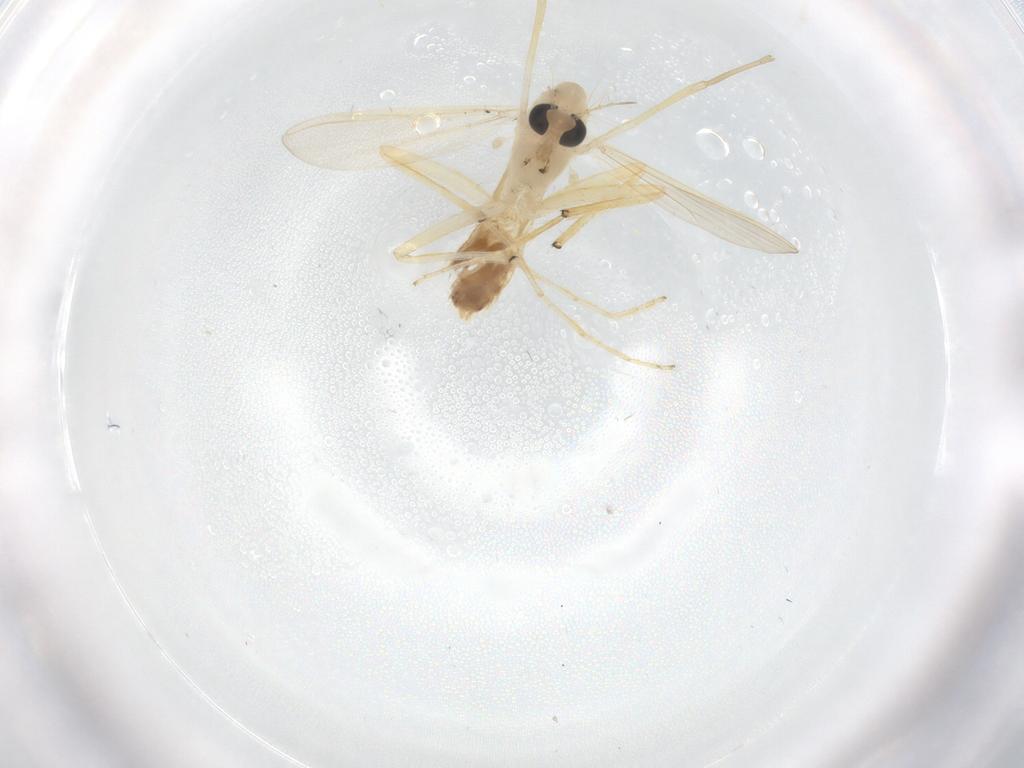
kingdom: Animalia
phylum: Arthropoda
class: Insecta
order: Diptera
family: Chironomidae
